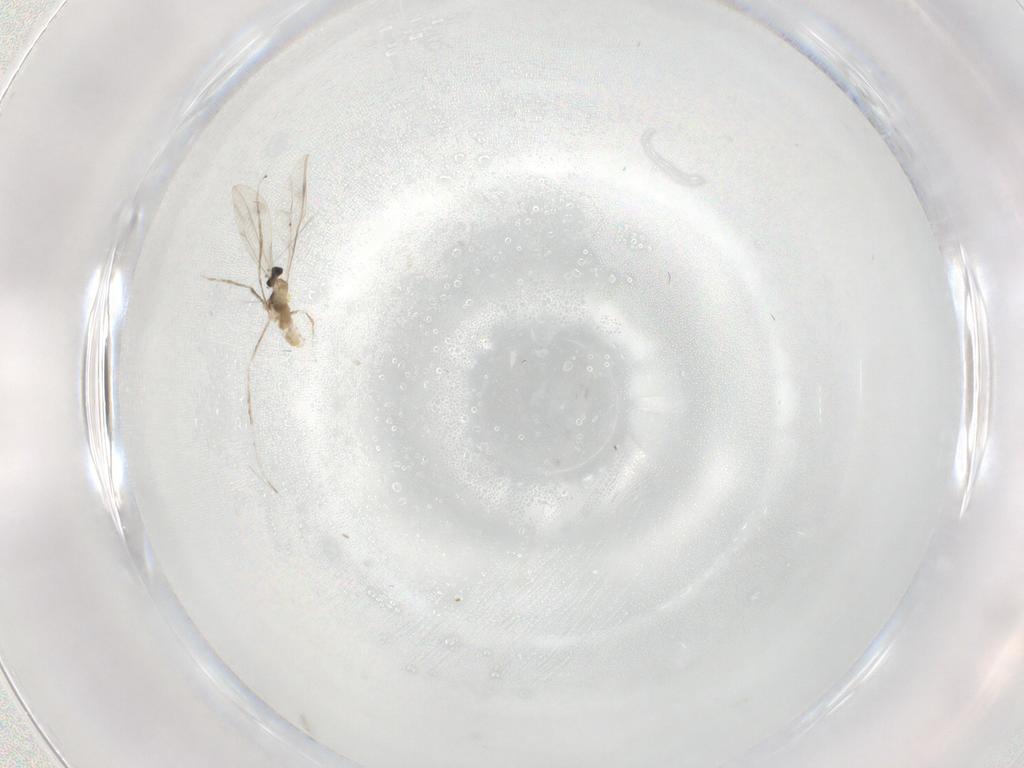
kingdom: Animalia
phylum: Arthropoda
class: Insecta
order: Diptera
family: Cecidomyiidae
